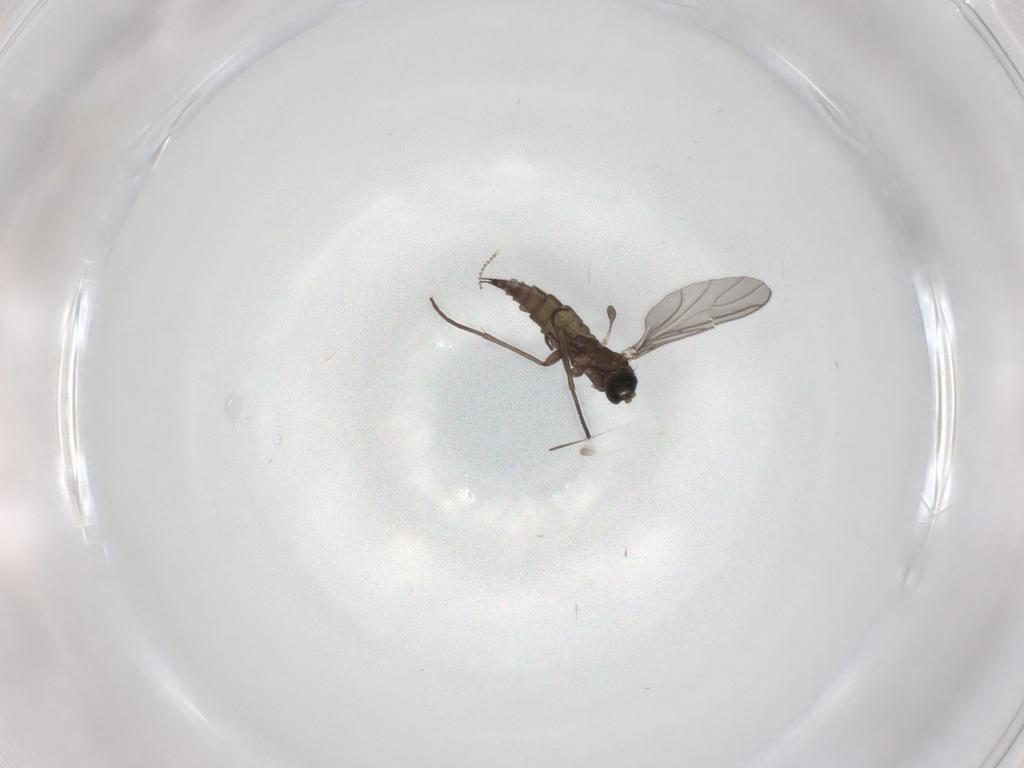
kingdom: Animalia
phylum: Arthropoda
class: Insecta
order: Diptera
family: Sciaridae
